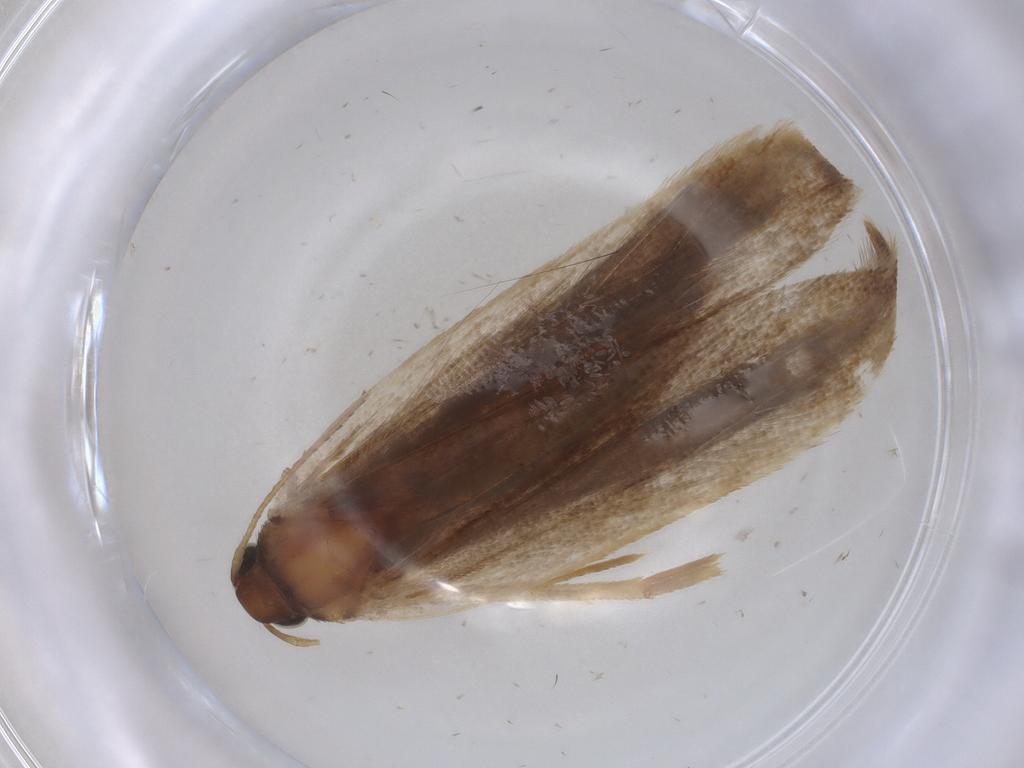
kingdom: Animalia
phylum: Arthropoda
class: Insecta
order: Lepidoptera
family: Gelechiidae
